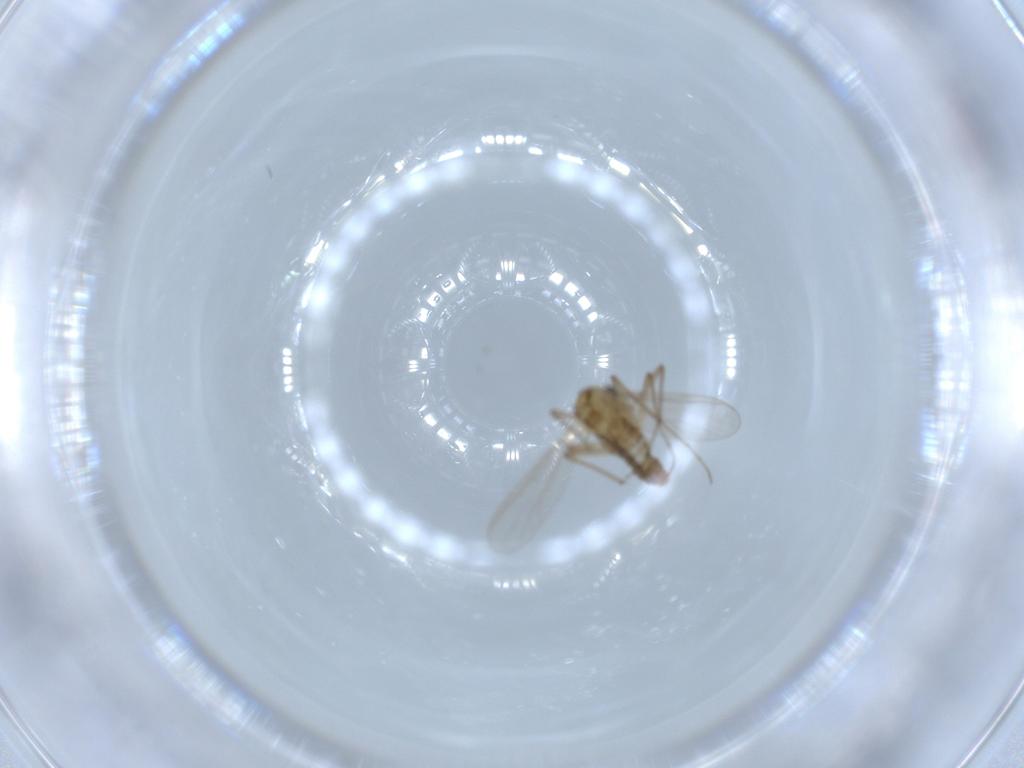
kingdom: Animalia
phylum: Arthropoda
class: Insecta
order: Diptera
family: Chironomidae
